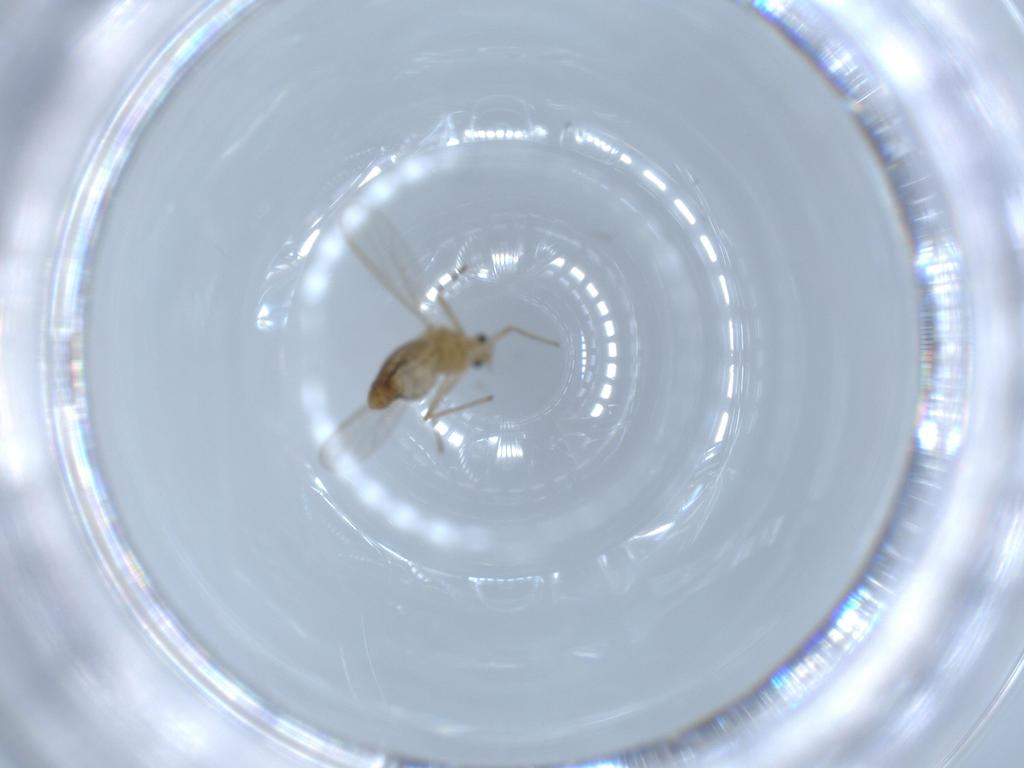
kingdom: Animalia
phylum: Arthropoda
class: Insecta
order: Diptera
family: Chironomidae
